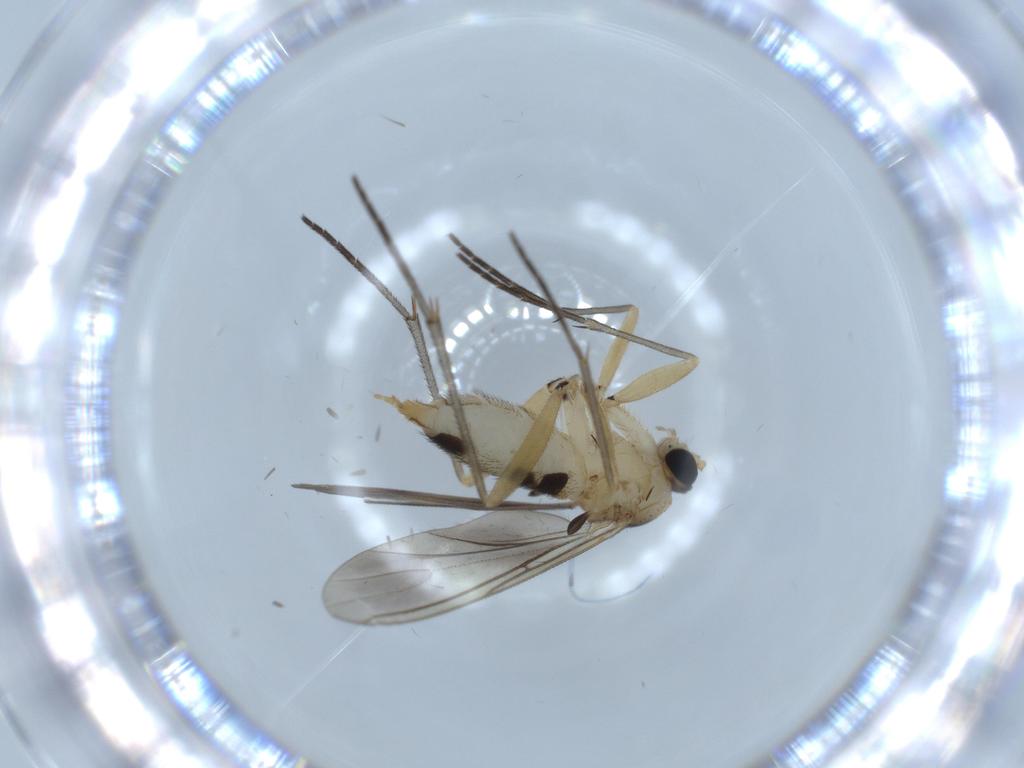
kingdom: Animalia
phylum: Arthropoda
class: Insecta
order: Diptera
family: Sciaridae
